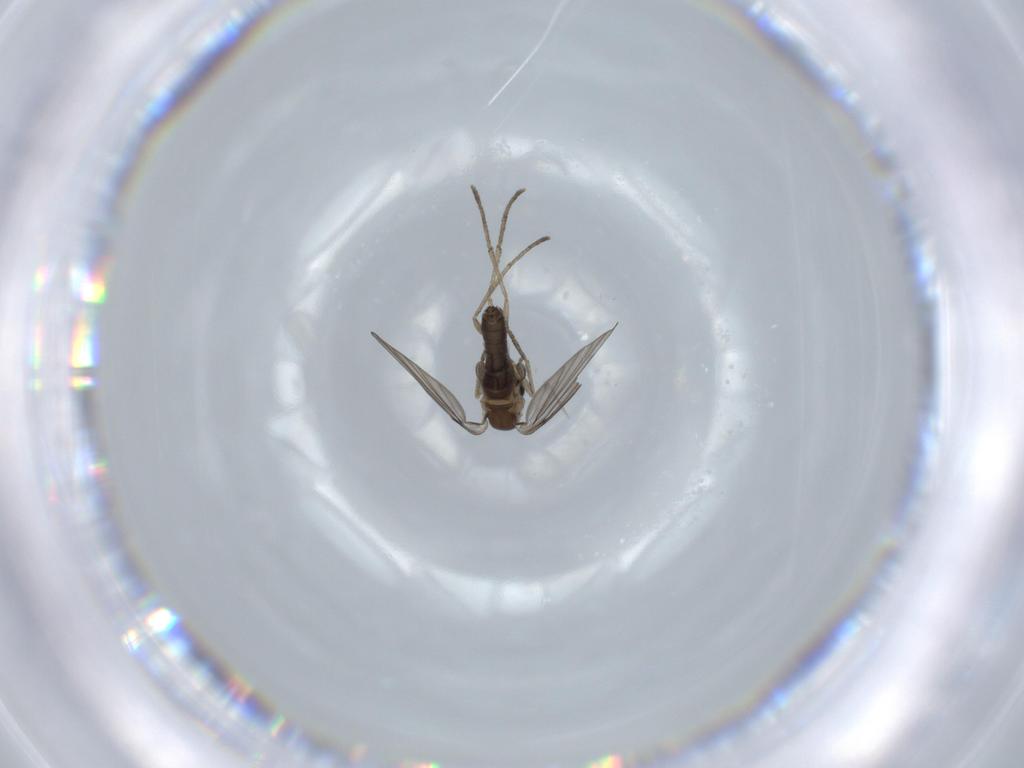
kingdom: Animalia
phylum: Arthropoda
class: Insecta
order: Diptera
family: Psychodidae
